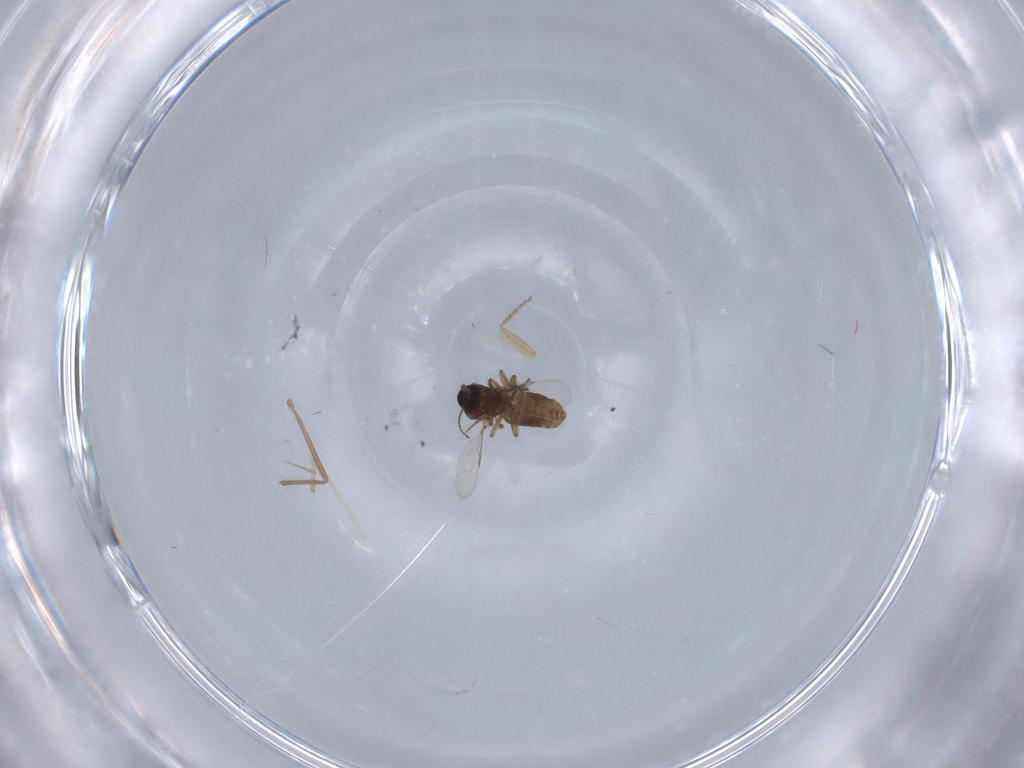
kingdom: Animalia
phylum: Arthropoda
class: Insecta
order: Diptera
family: Ceratopogonidae
